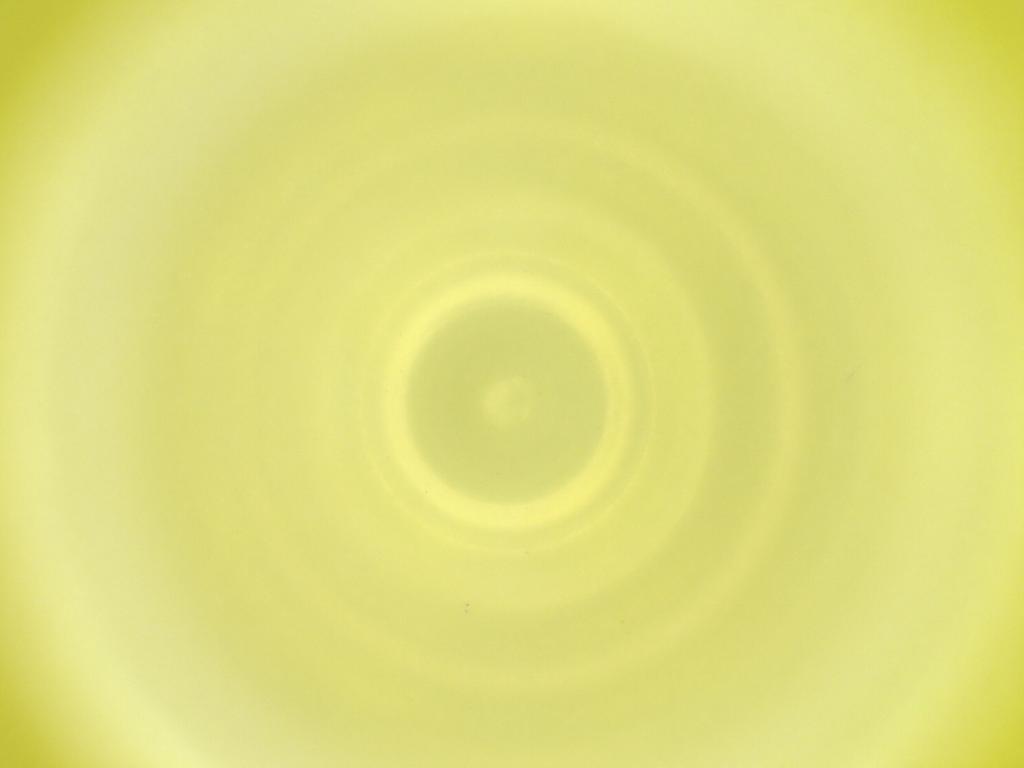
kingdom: Animalia
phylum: Arthropoda
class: Insecta
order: Diptera
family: Cecidomyiidae
